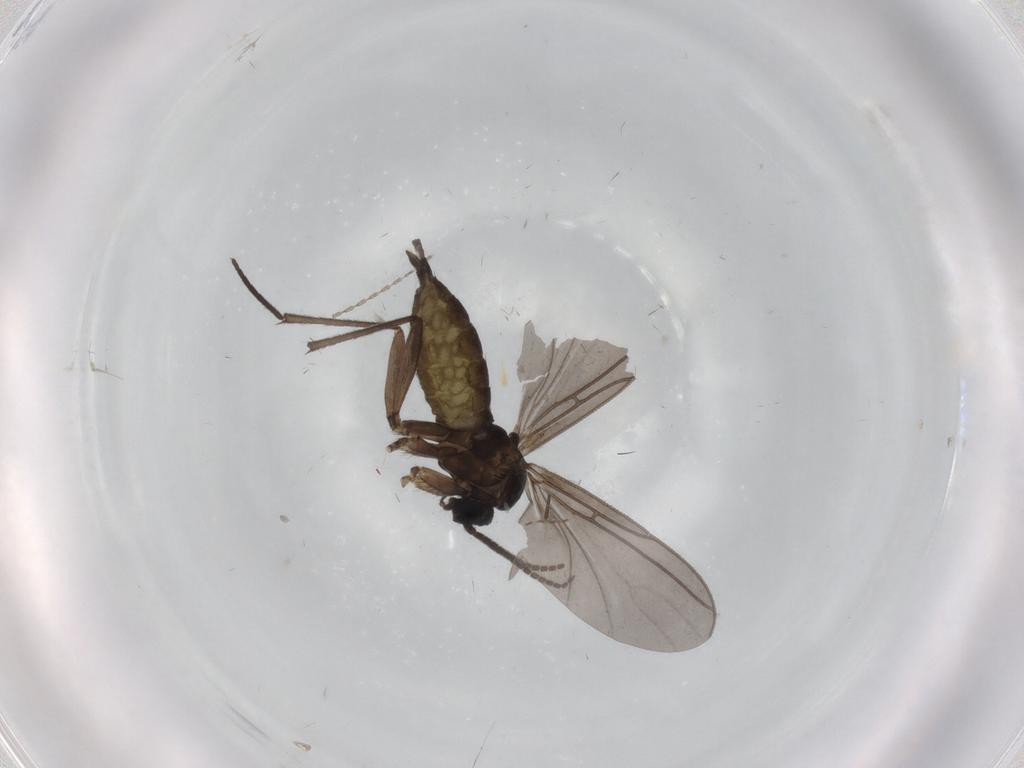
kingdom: Animalia
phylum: Arthropoda
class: Insecta
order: Diptera
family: Sciaridae
